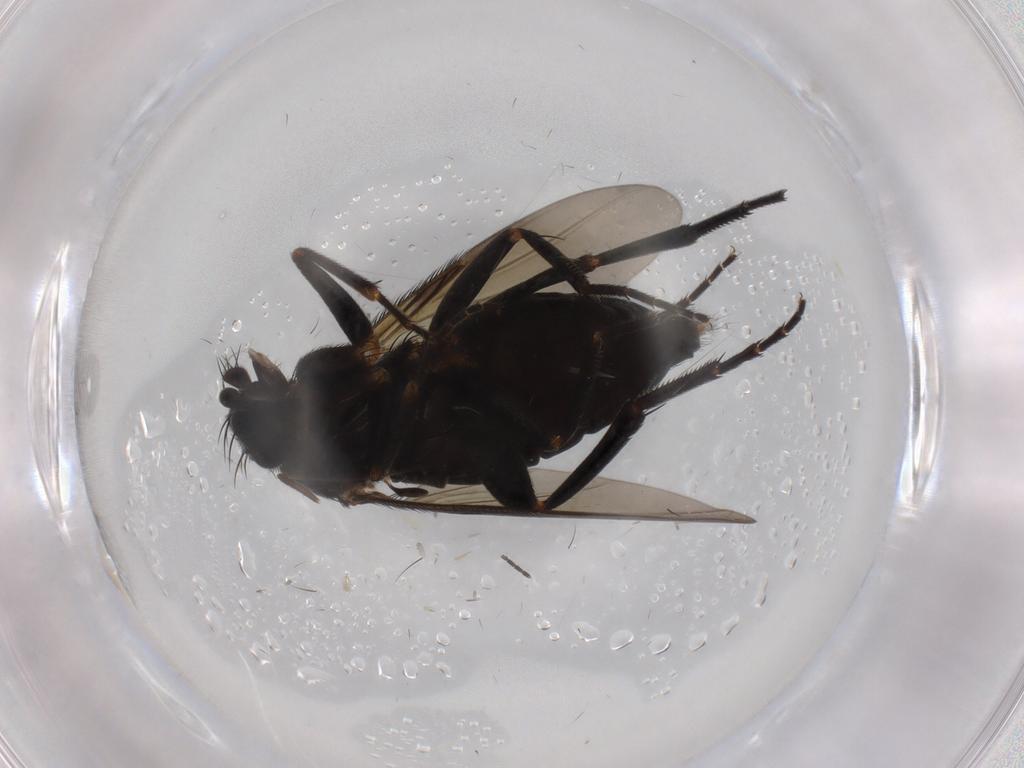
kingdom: Animalia
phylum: Arthropoda
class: Insecta
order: Diptera
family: Phoridae
